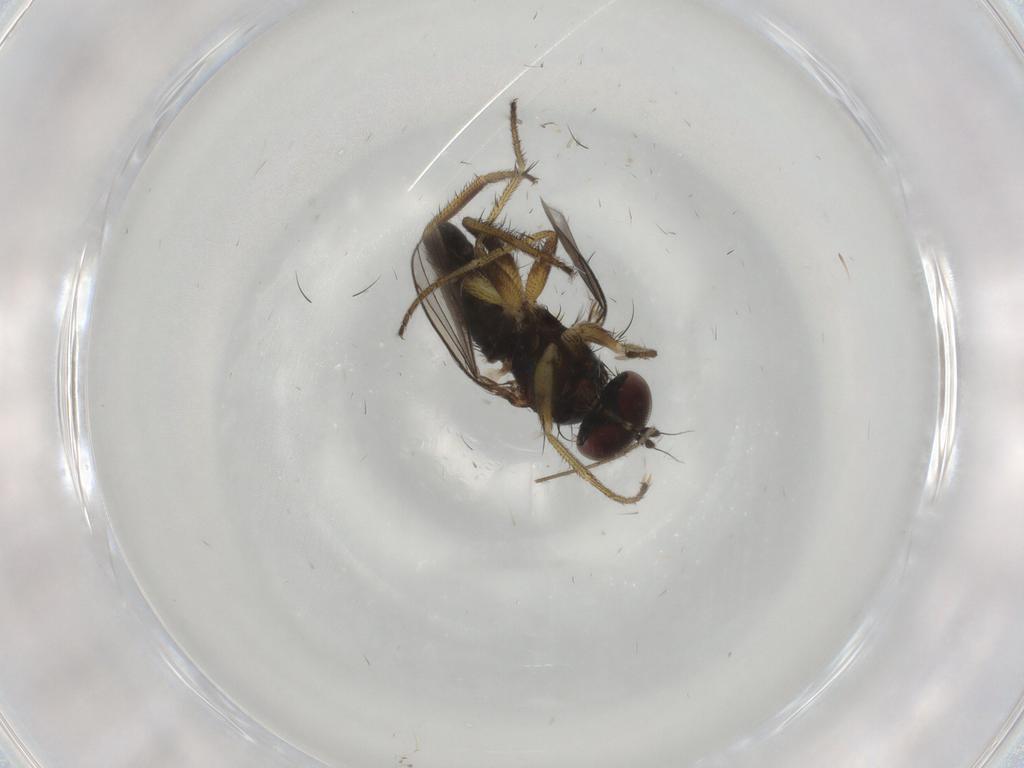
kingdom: Animalia
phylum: Arthropoda
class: Insecta
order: Diptera
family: Dolichopodidae
